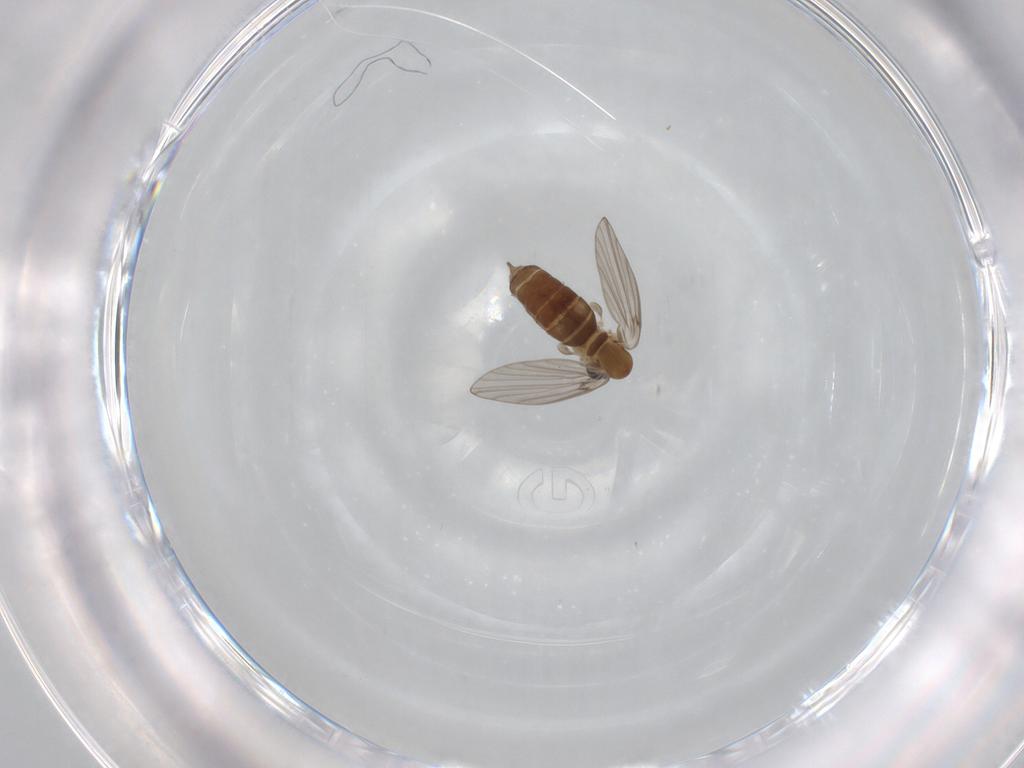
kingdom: Animalia
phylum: Arthropoda
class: Insecta
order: Diptera
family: Psychodidae
